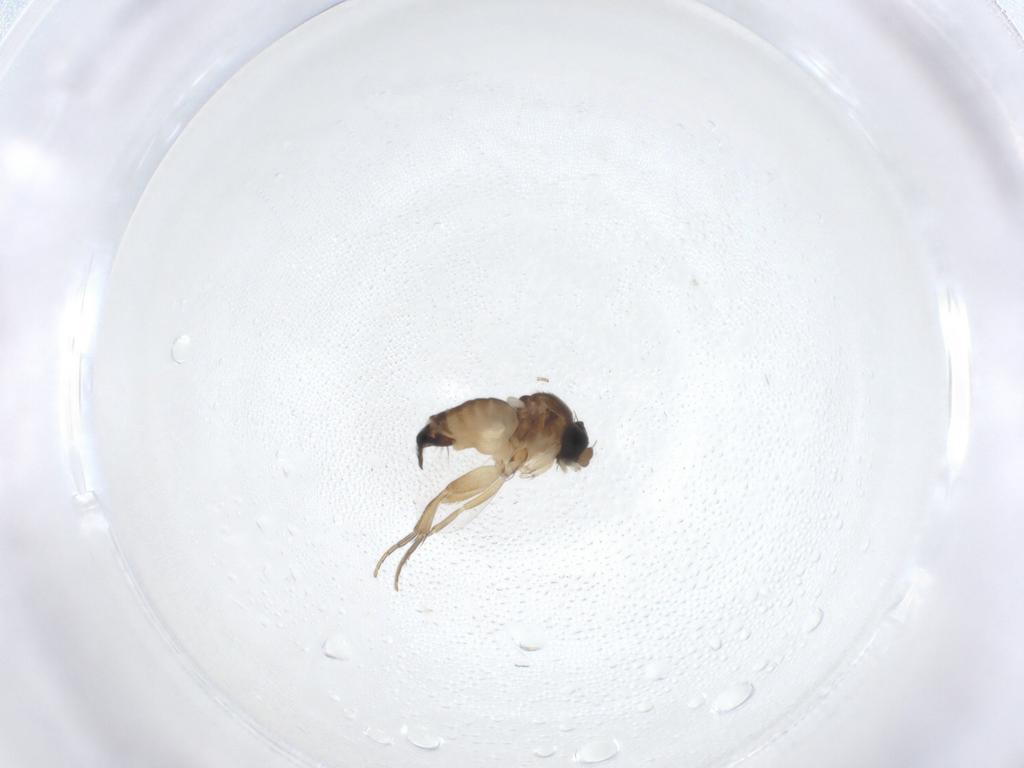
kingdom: Animalia
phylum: Arthropoda
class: Insecta
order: Diptera
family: Phoridae
